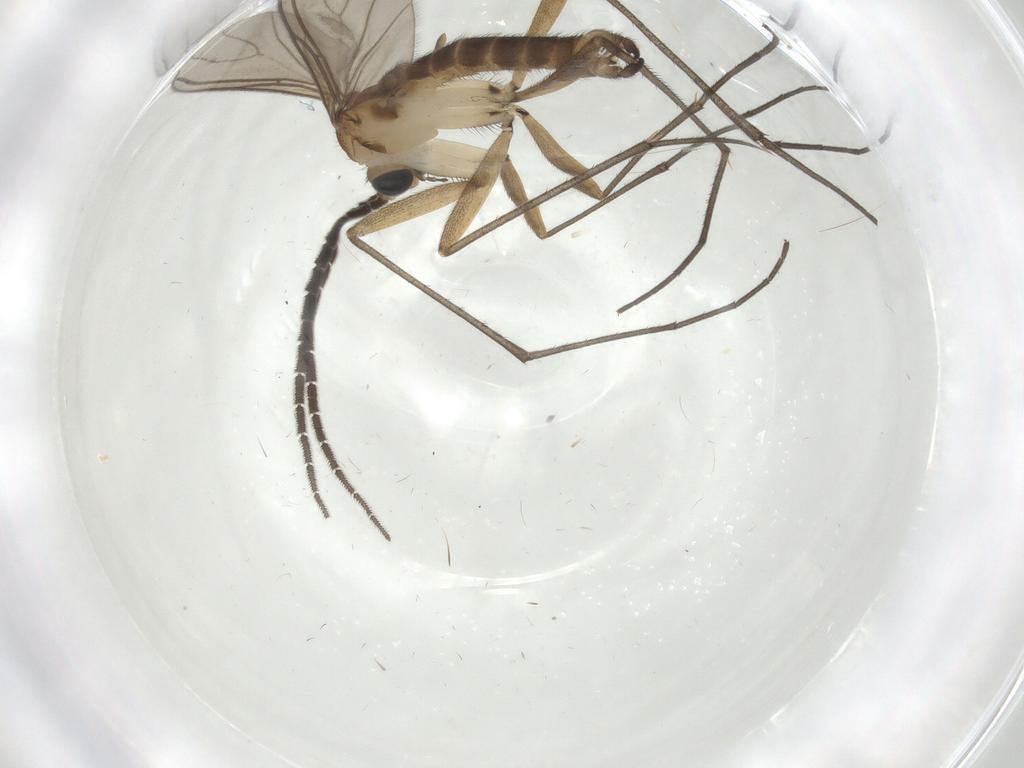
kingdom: Animalia
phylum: Arthropoda
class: Insecta
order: Diptera
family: Sciaridae
